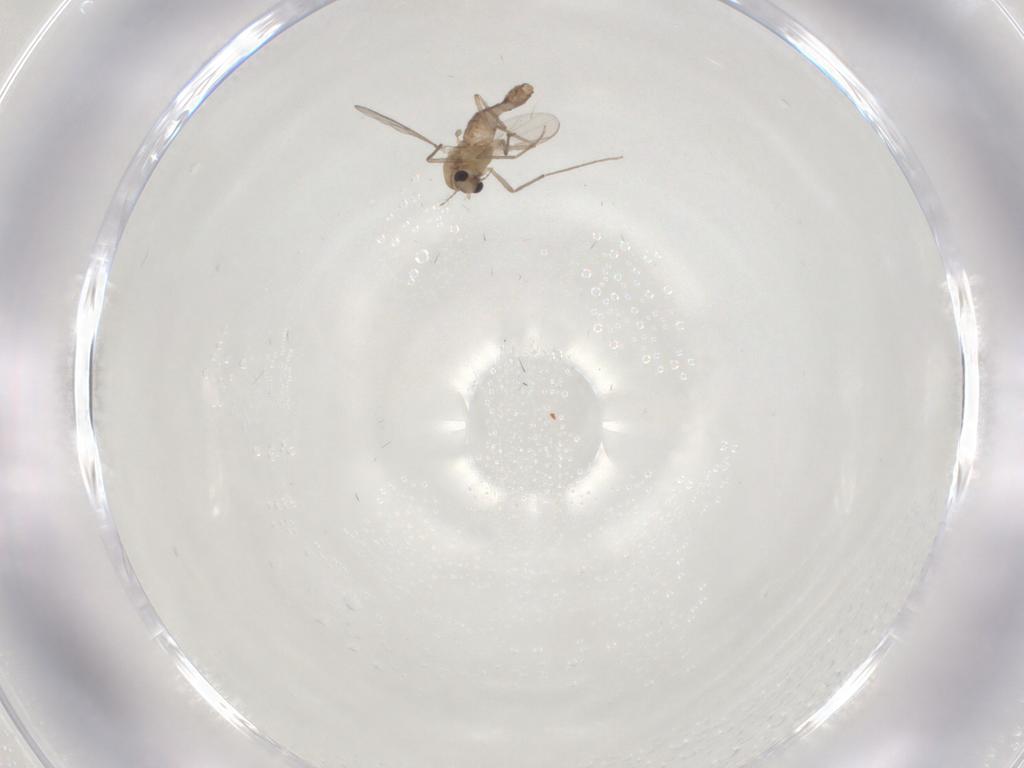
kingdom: Animalia
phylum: Arthropoda
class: Insecta
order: Diptera
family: Chironomidae
